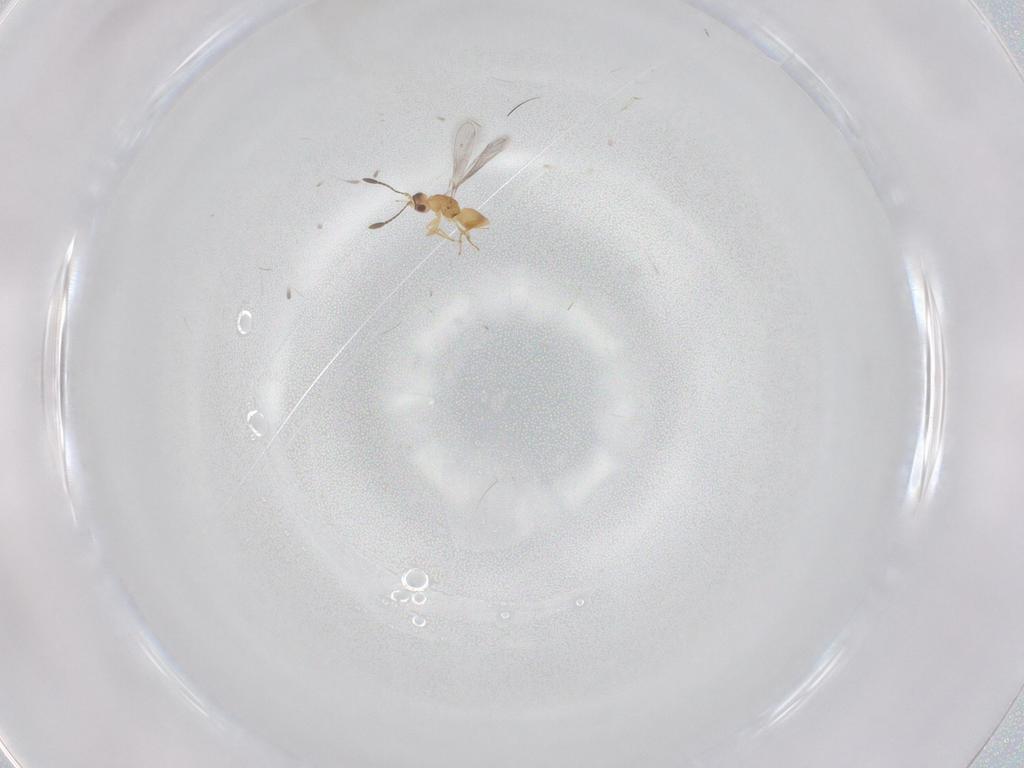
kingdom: Animalia
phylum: Arthropoda
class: Insecta
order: Hymenoptera
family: Mymaridae
